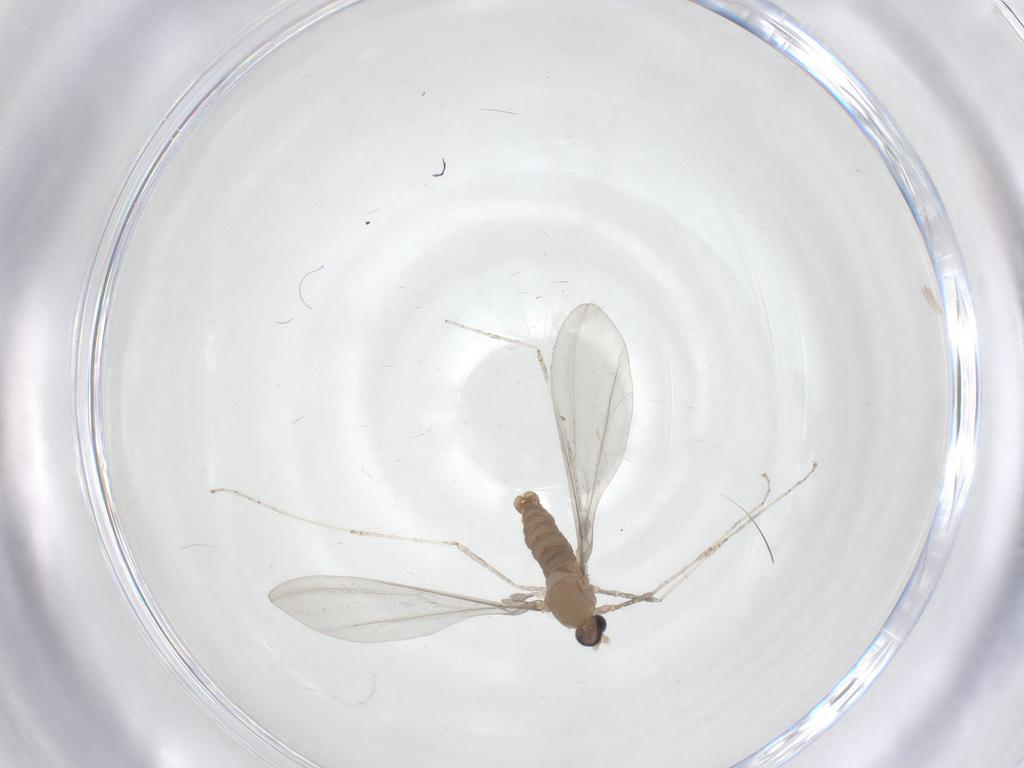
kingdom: Animalia
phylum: Arthropoda
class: Insecta
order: Diptera
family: Cecidomyiidae
